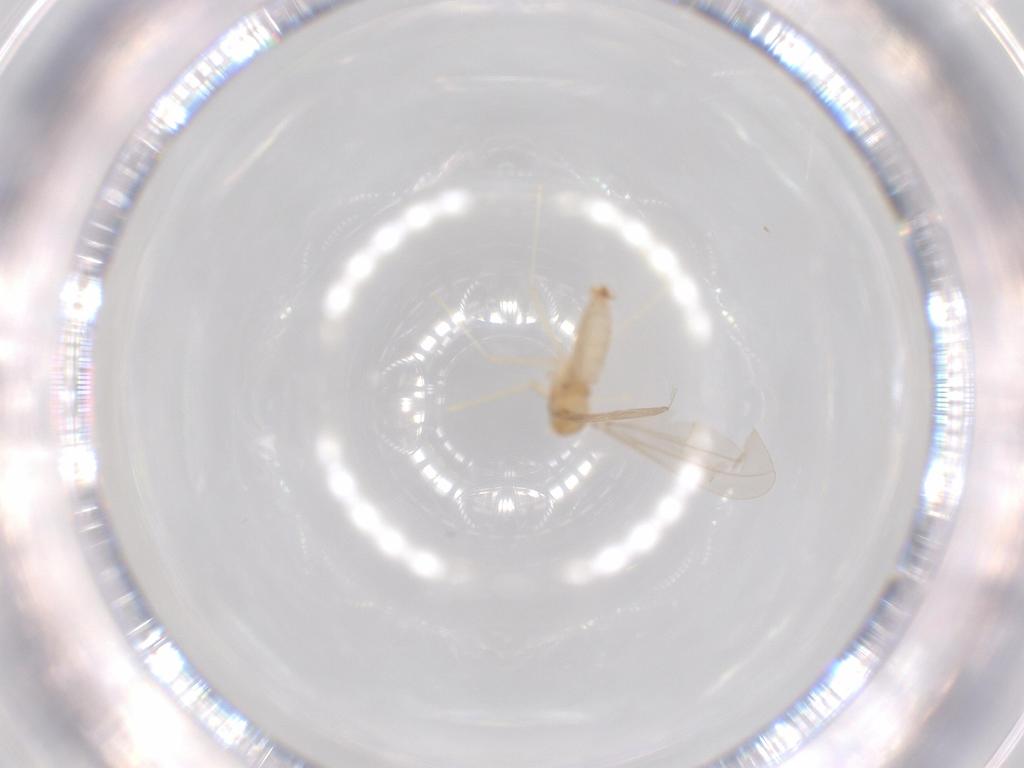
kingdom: Animalia
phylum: Arthropoda
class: Insecta
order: Diptera
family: Cecidomyiidae
